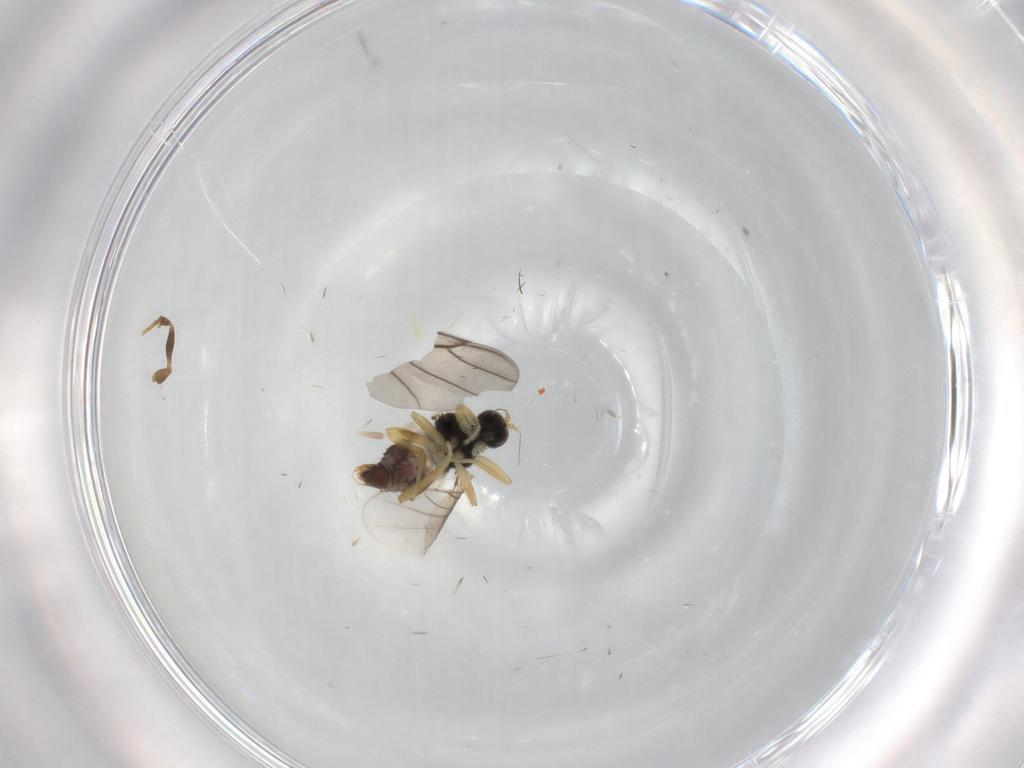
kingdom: Animalia
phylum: Arthropoda
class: Insecta
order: Diptera
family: Hybotidae
